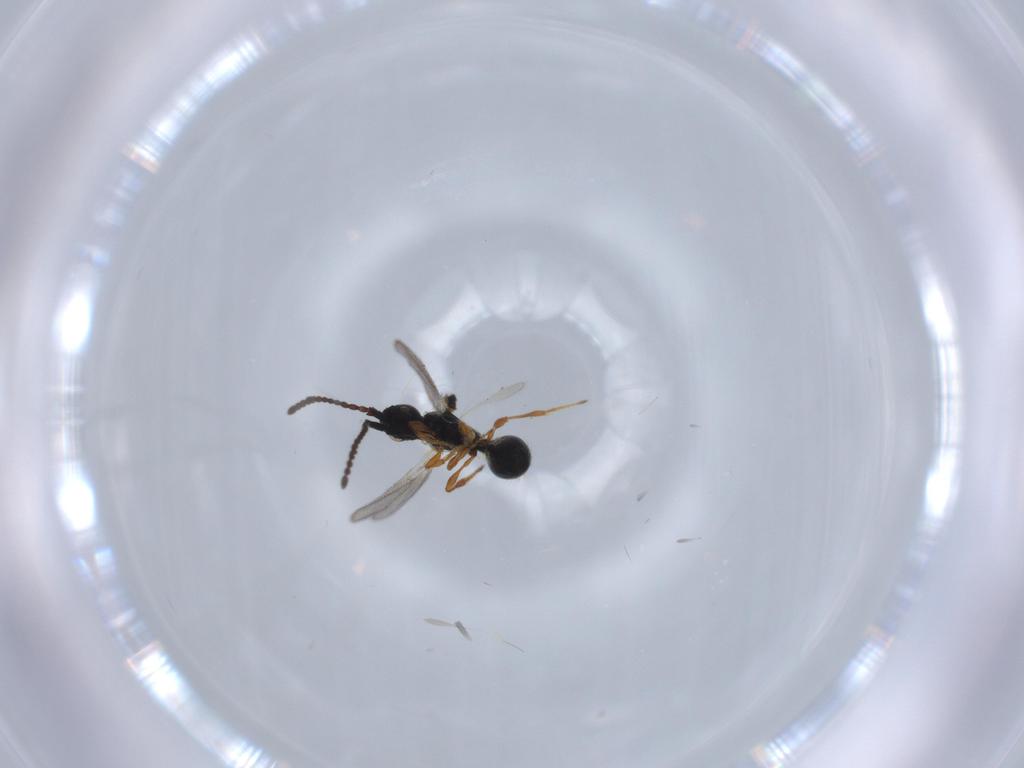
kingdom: Animalia
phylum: Arthropoda
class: Insecta
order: Hymenoptera
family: Diapriidae
